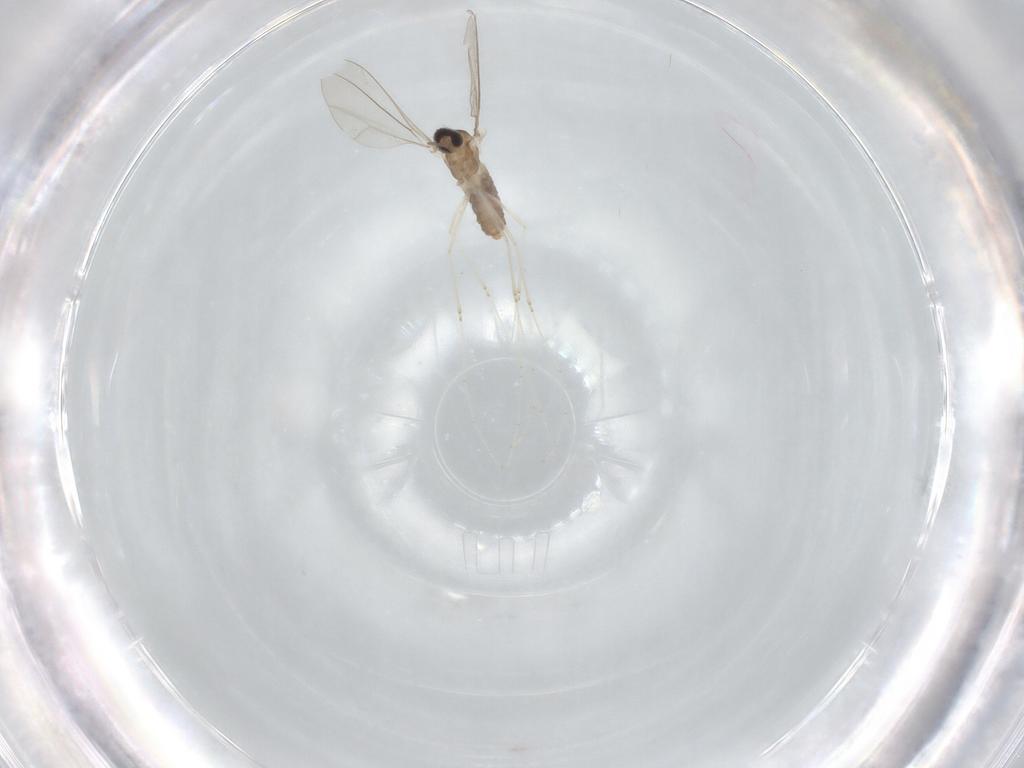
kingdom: Animalia
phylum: Arthropoda
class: Insecta
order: Diptera
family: Cecidomyiidae
